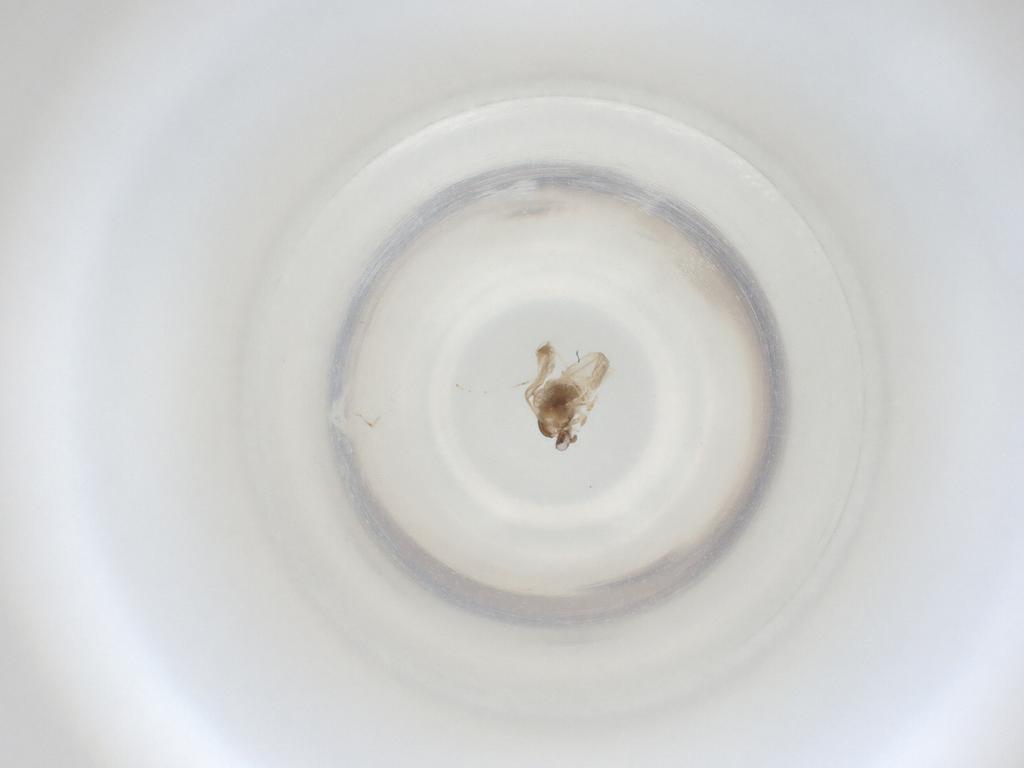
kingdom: Animalia
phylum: Arthropoda
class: Insecta
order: Diptera
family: Cecidomyiidae
